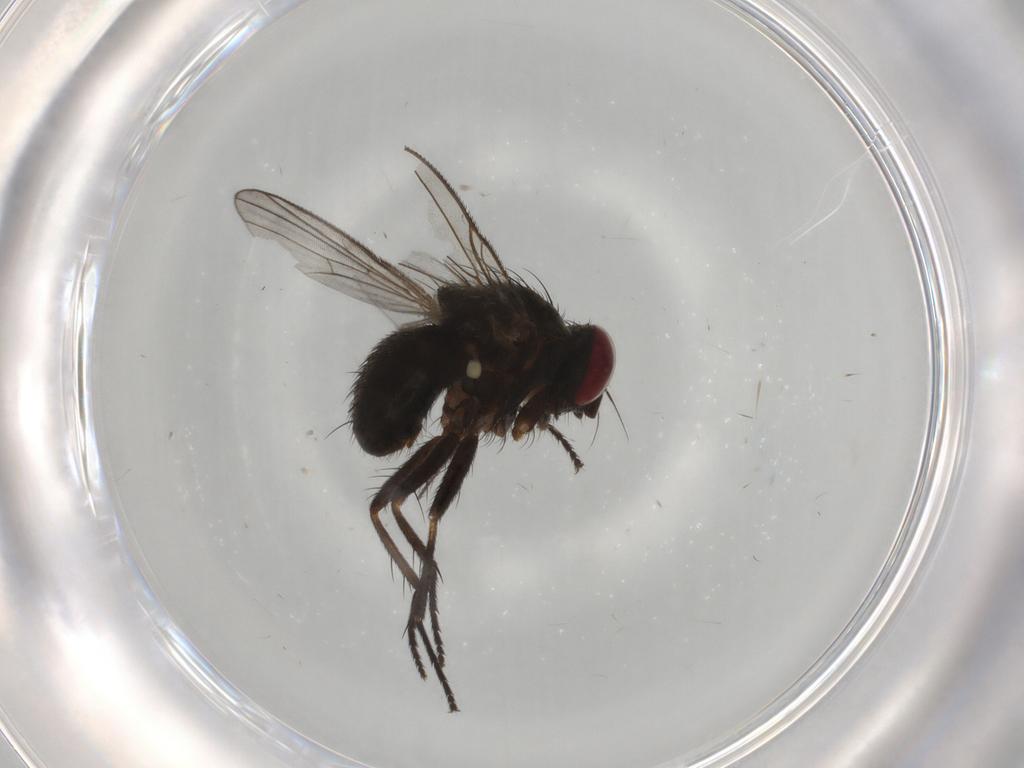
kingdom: Animalia
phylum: Arthropoda
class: Insecta
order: Diptera
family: Muscidae
